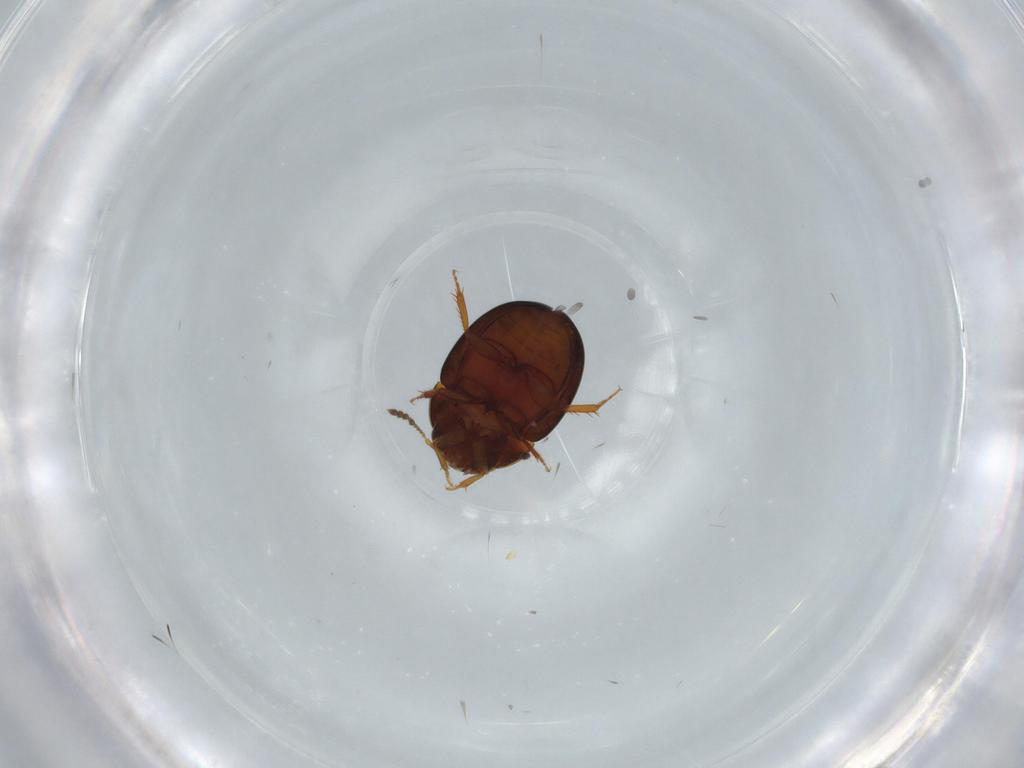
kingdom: Animalia
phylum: Arthropoda
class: Insecta
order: Coleoptera
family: Leiodidae
